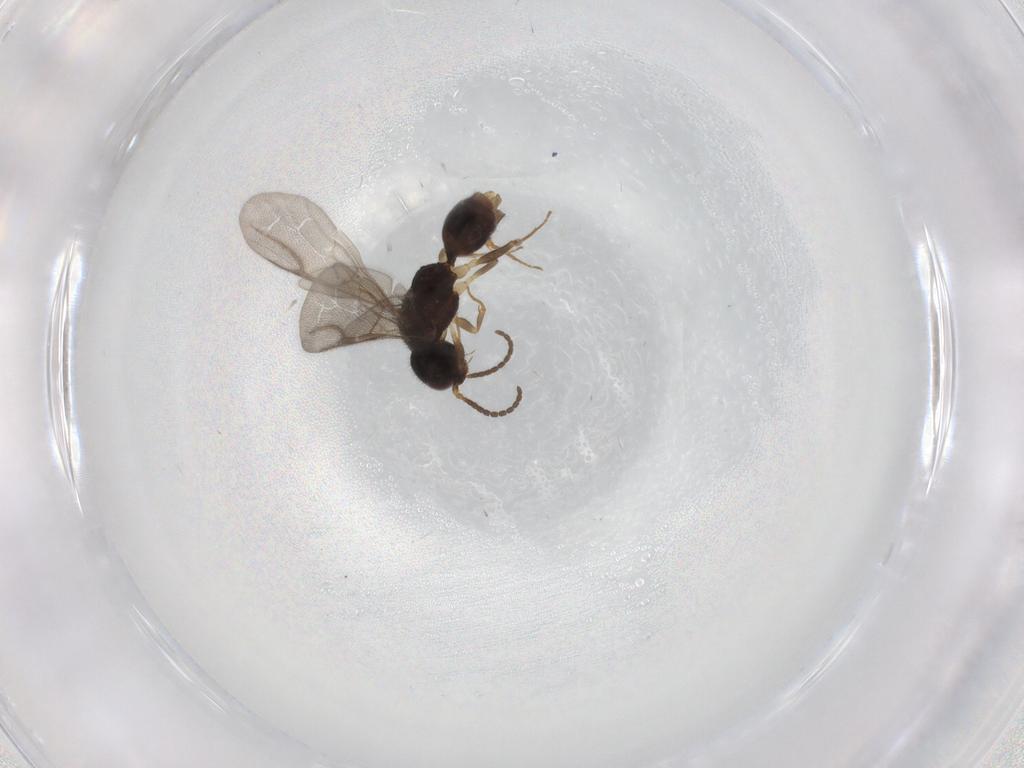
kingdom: Animalia
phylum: Arthropoda
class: Insecta
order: Hymenoptera
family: Bethylidae
